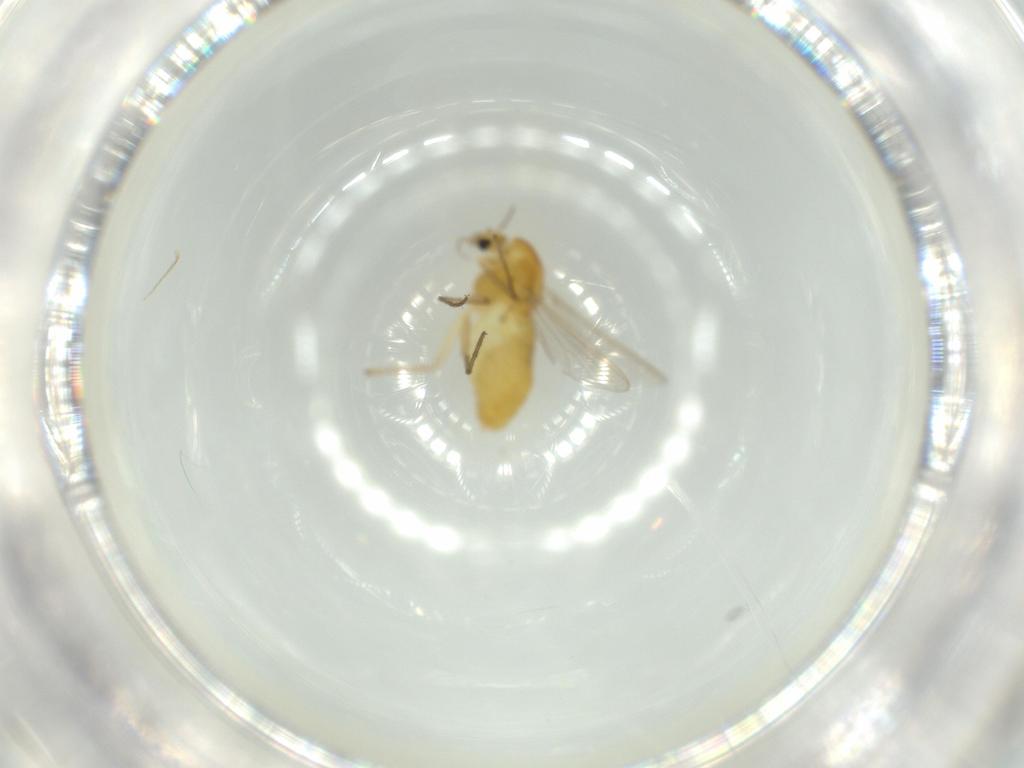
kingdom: Animalia
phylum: Arthropoda
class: Insecta
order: Diptera
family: Chironomidae
